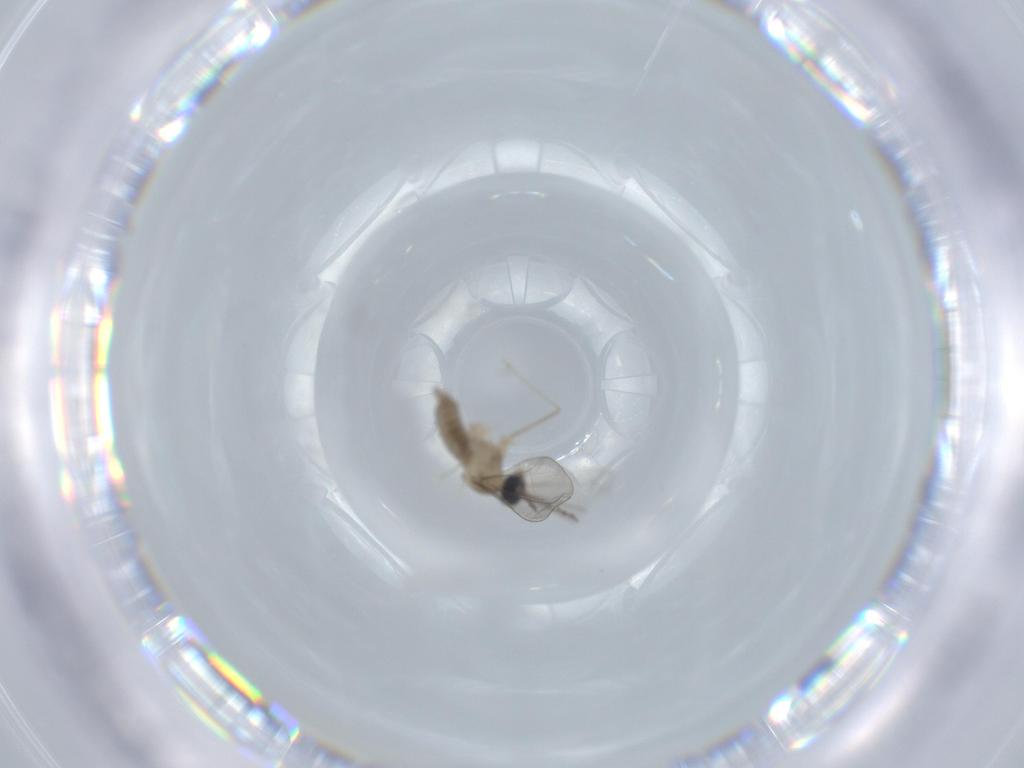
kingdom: Animalia
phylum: Arthropoda
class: Insecta
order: Diptera
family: Cecidomyiidae
